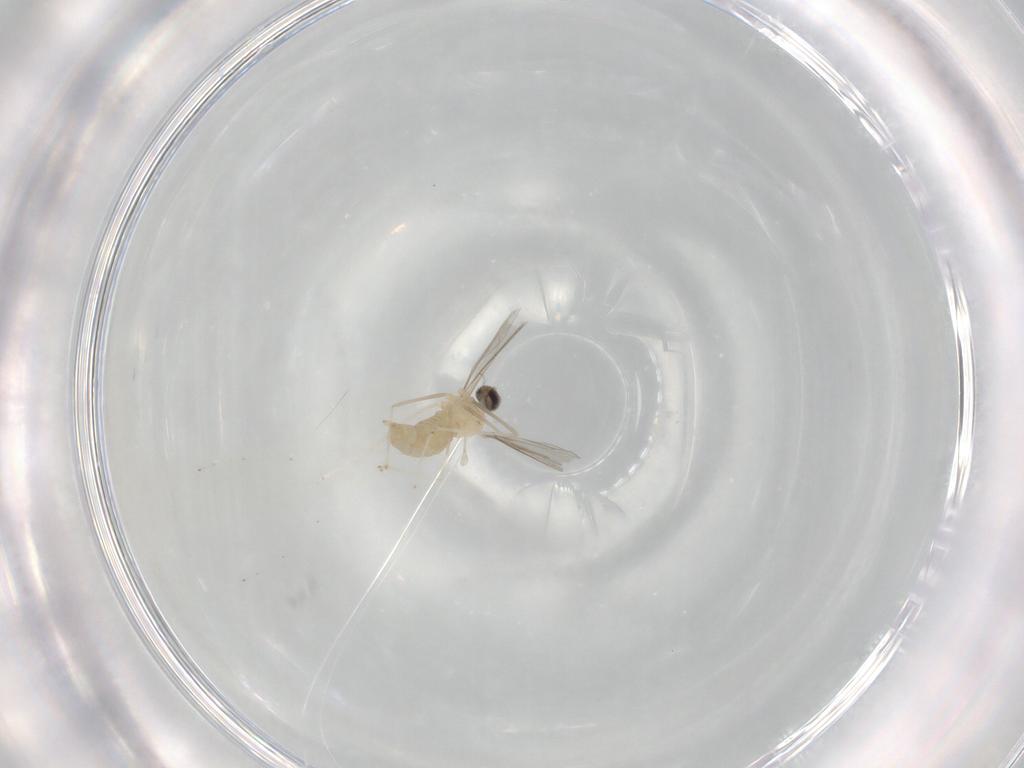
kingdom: Animalia
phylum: Arthropoda
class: Insecta
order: Diptera
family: Cecidomyiidae
